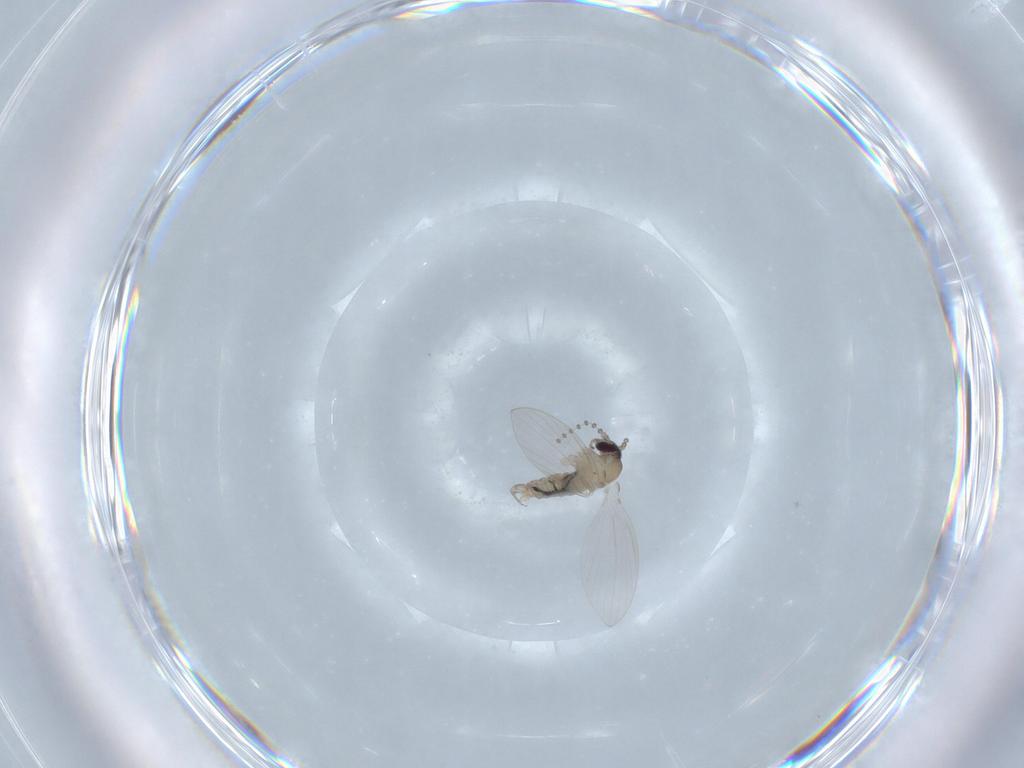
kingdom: Animalia
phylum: Arthropoda
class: Insecta
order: Diptera
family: Psychodidae
